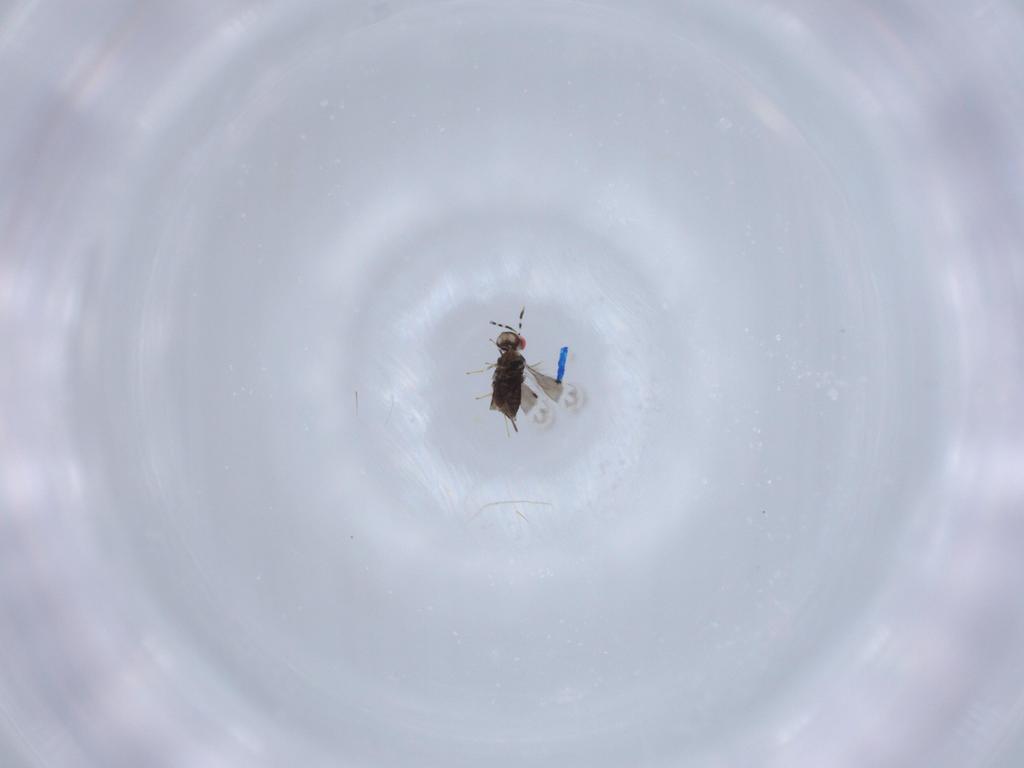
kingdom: Animalia
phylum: Arthropoda
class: Insecta
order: Hymenoptera
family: Azotidae
